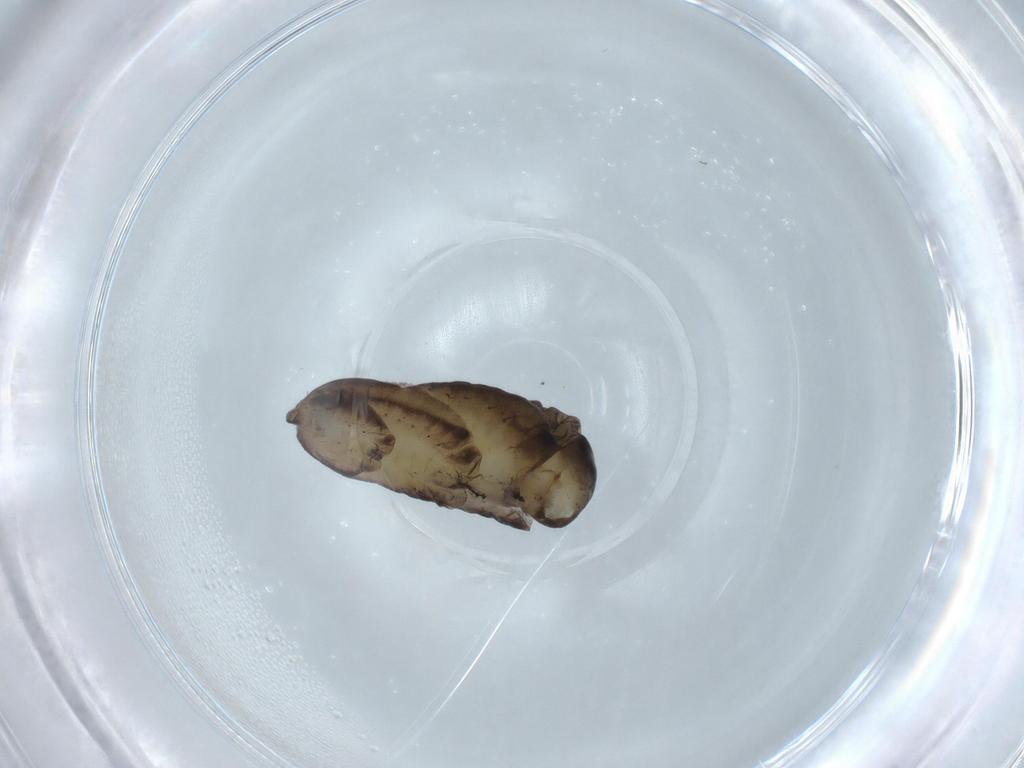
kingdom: Animalia
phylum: Arthropoda
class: Insecta
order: Hymenoptera
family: Rhopalosomatidae
